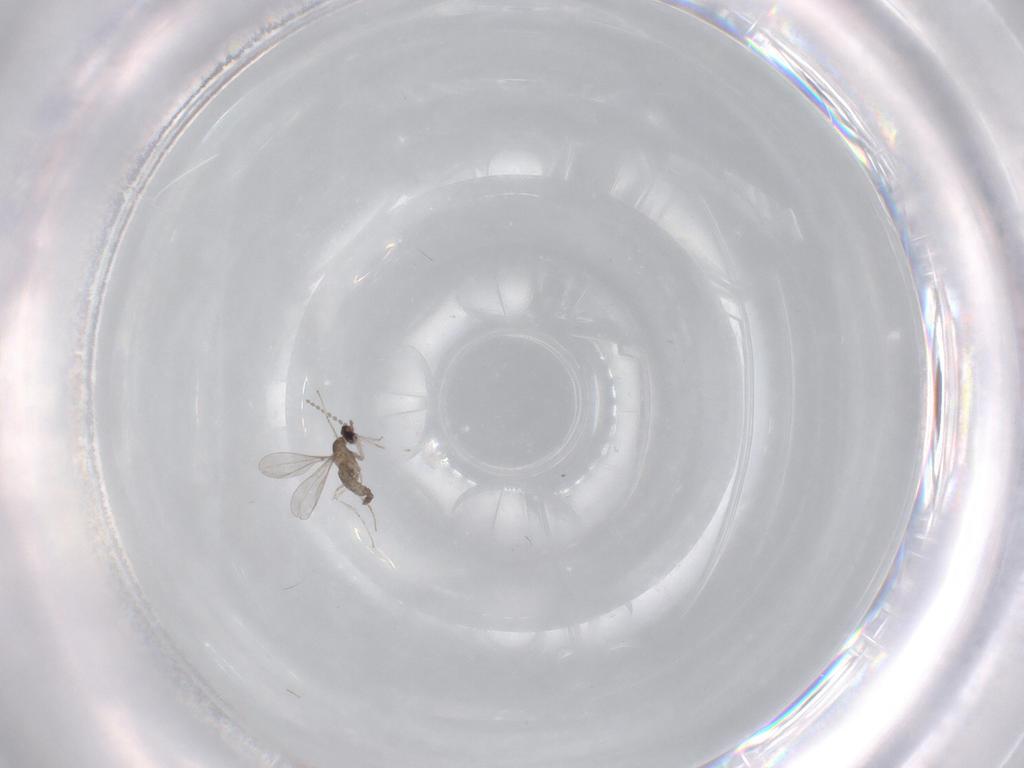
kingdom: Animalia
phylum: Arthropoda
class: Insecta
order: Diptera
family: Cecidomyiidae
